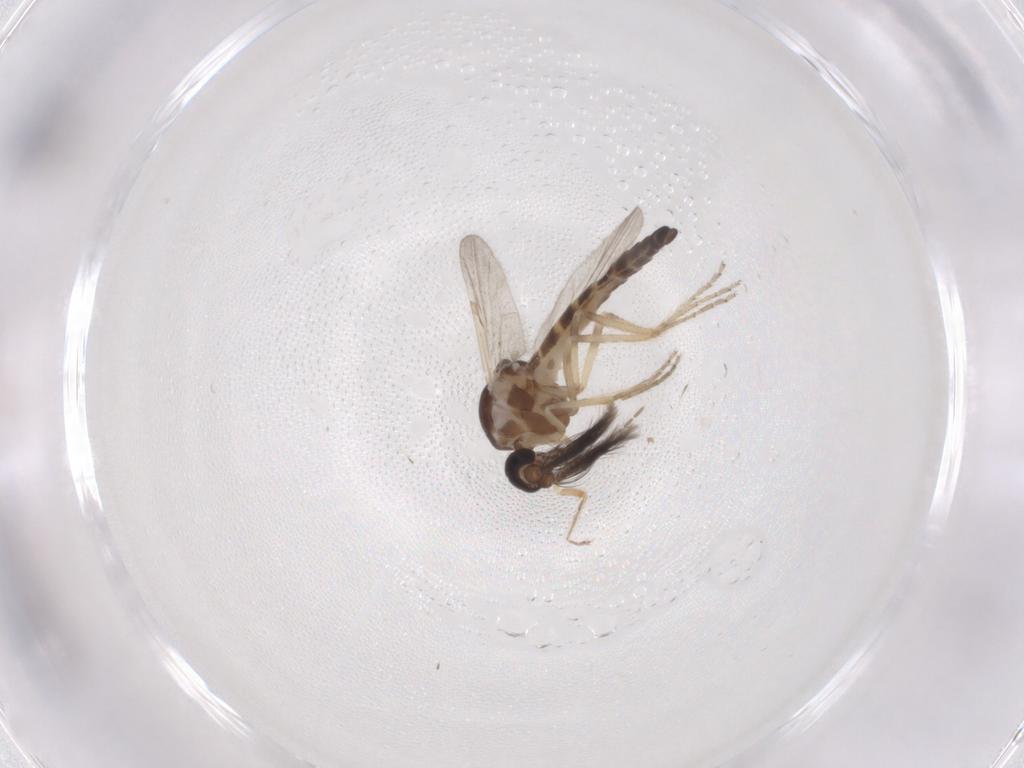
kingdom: Animalia
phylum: Arthropoda
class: Insecta
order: Diptera
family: Ceratopogonidae
